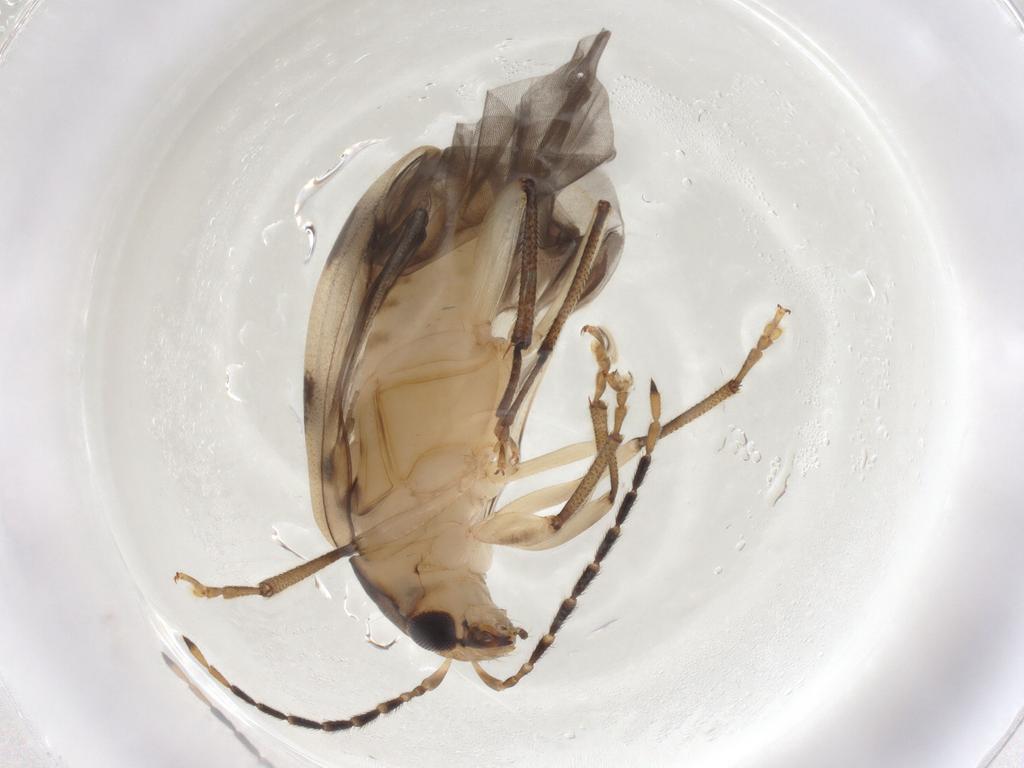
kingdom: Animalia
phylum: Arthropoda
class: Insecta
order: Coleoptera
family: Chrysomelidae
